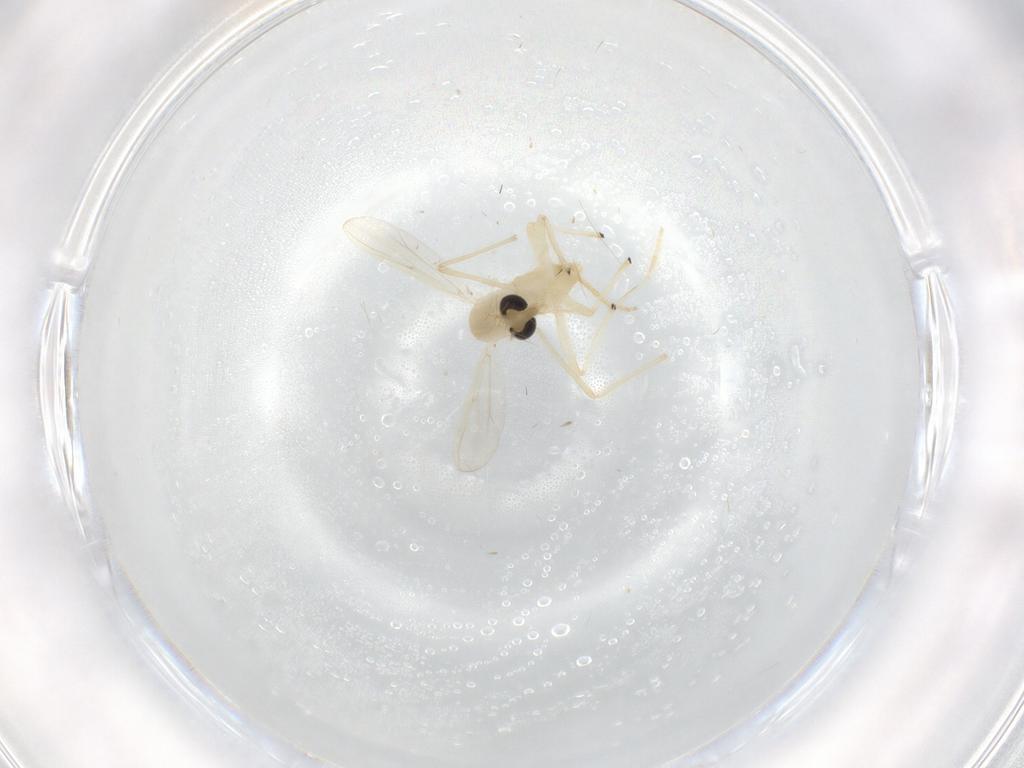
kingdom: Animalia
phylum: Arthropoda
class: Insecta
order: Diptera
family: Chironomidae
